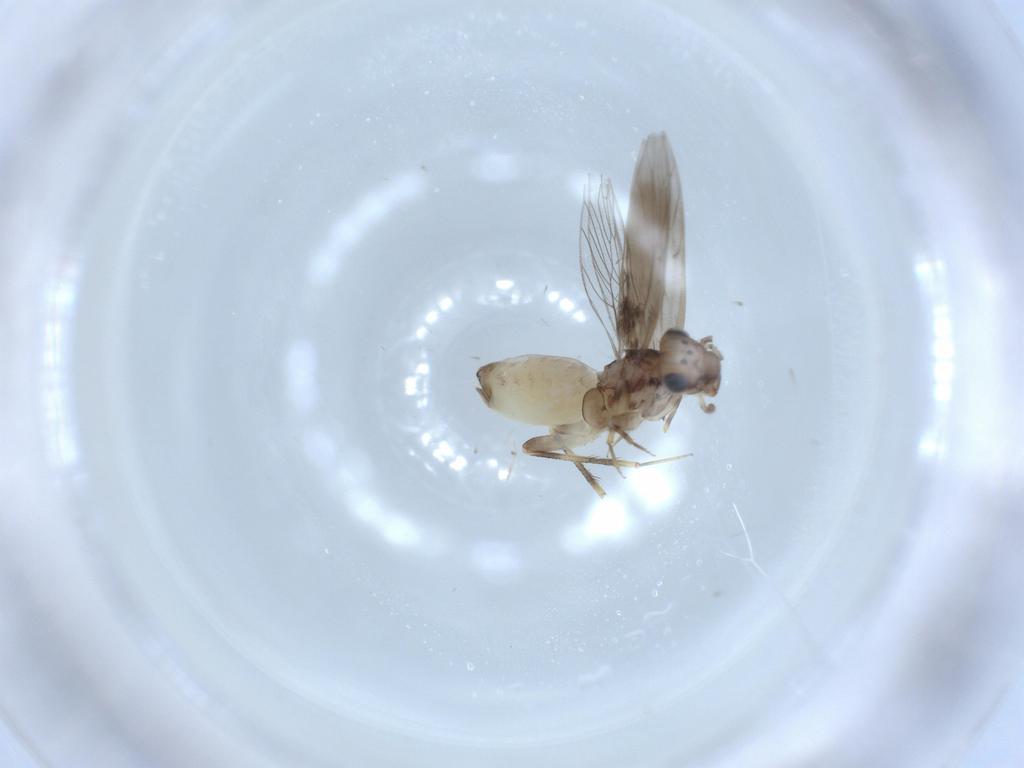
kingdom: Animalia
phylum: Arthropoda
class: Insecta
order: Psocodea
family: Lepidopsocidae
